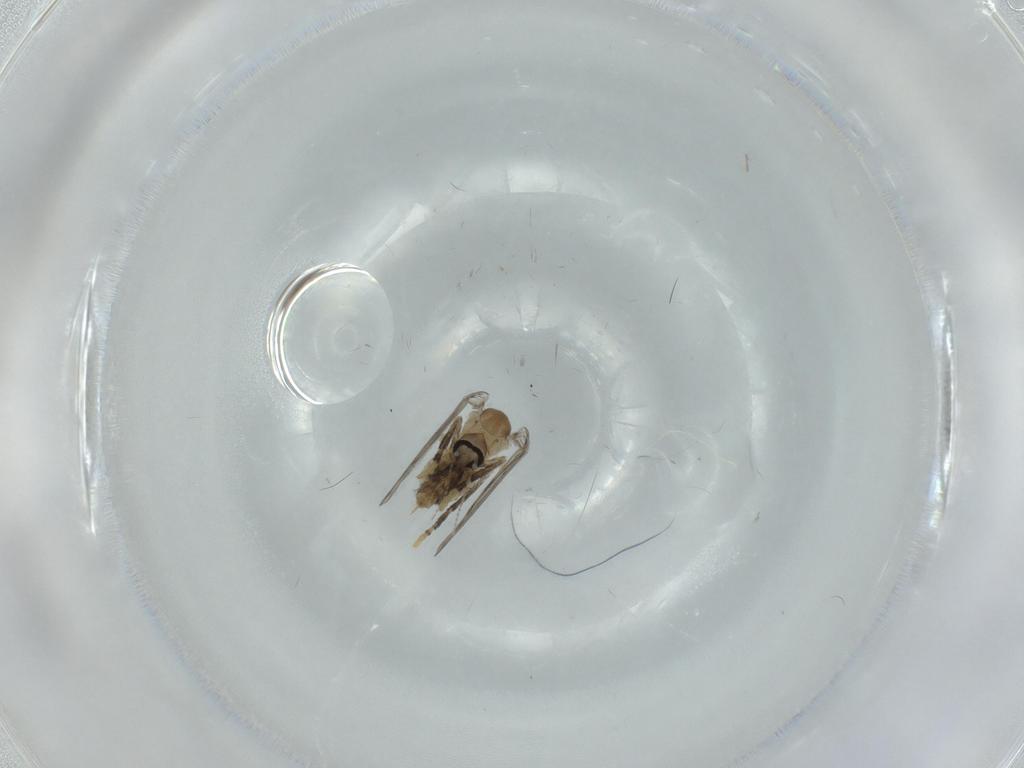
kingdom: Animalia
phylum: Arthropoda
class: Insecta
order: Diptera
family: Psychodidae
